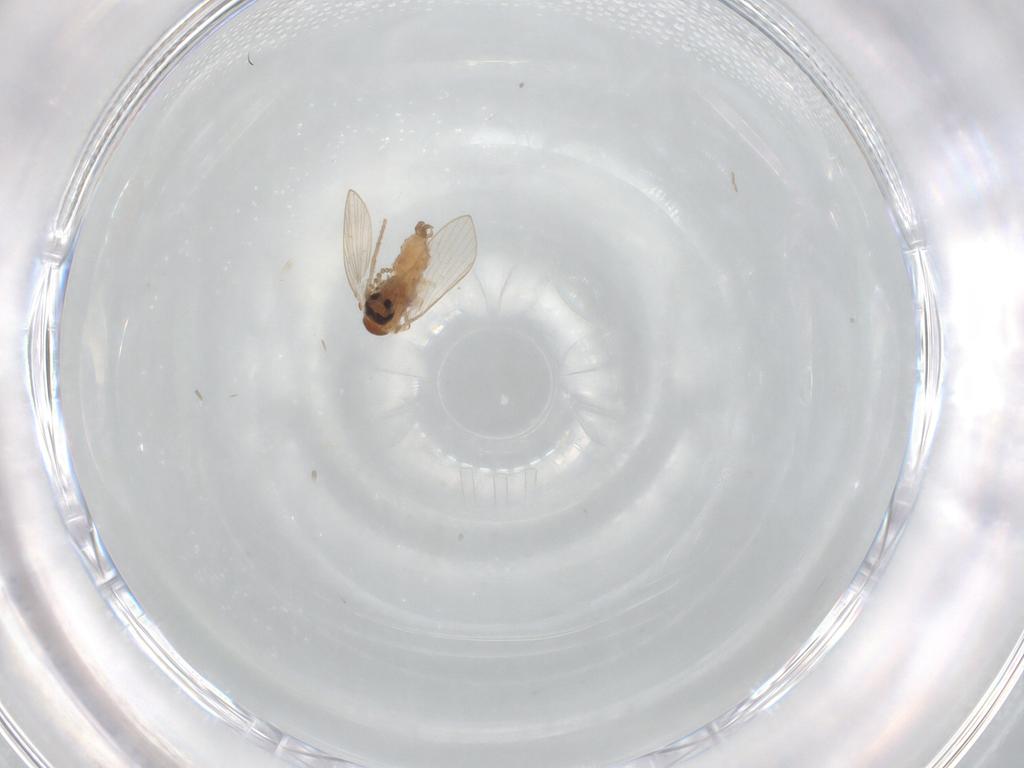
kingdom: Animalia
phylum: Arthropoda
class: Insecta
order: Diptera
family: Psychodidae
